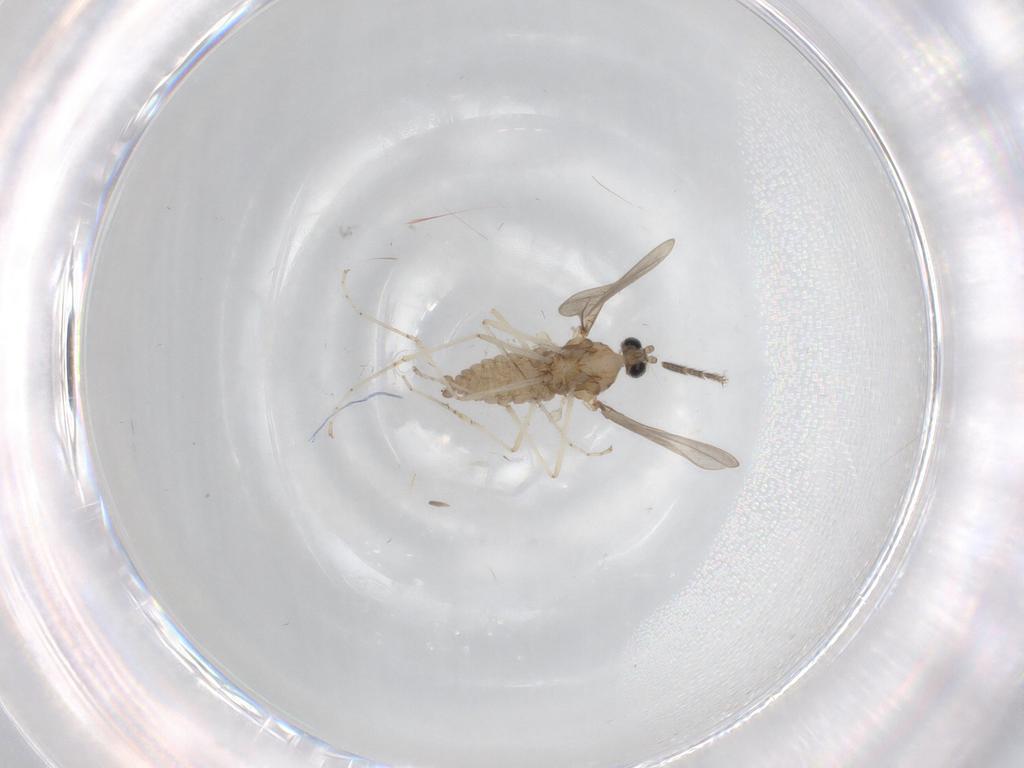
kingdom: Animalia
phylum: Arthropoda
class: Insecta
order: Diptera
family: Cecidomyiidae
